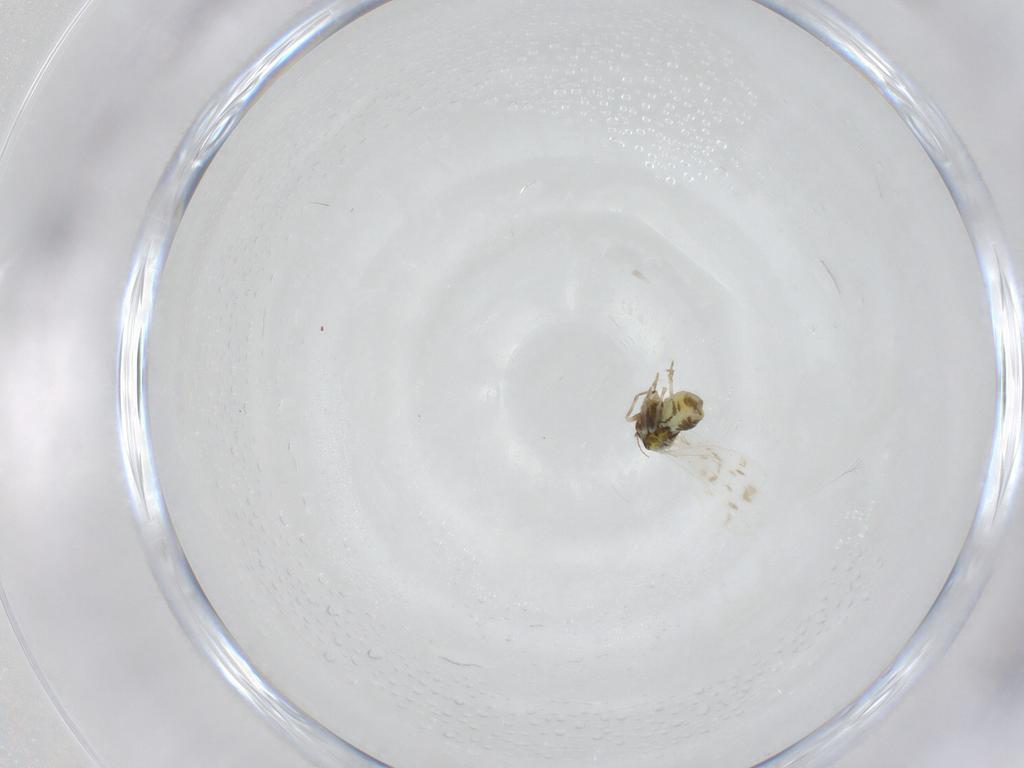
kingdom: Animalia
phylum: Arthropoda
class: Insecta
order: Hemiptera
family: Aleyrodidae
